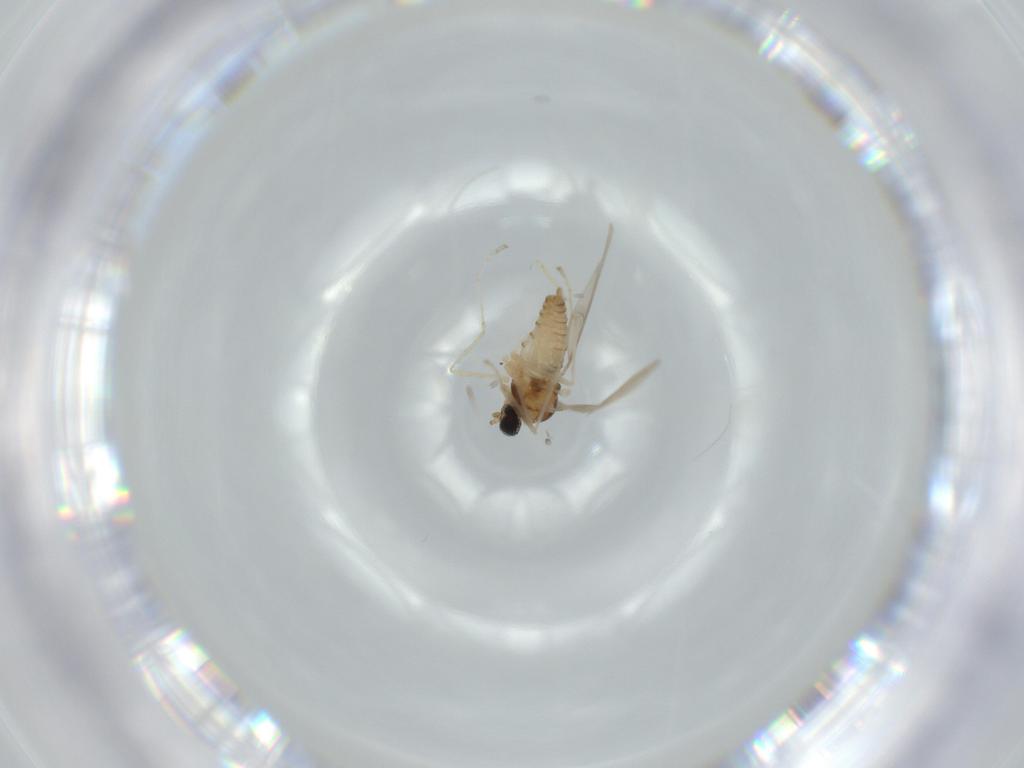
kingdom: Animalia
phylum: Arthropoda
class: Insecta
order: Diptera
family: Cecidomyiidae
